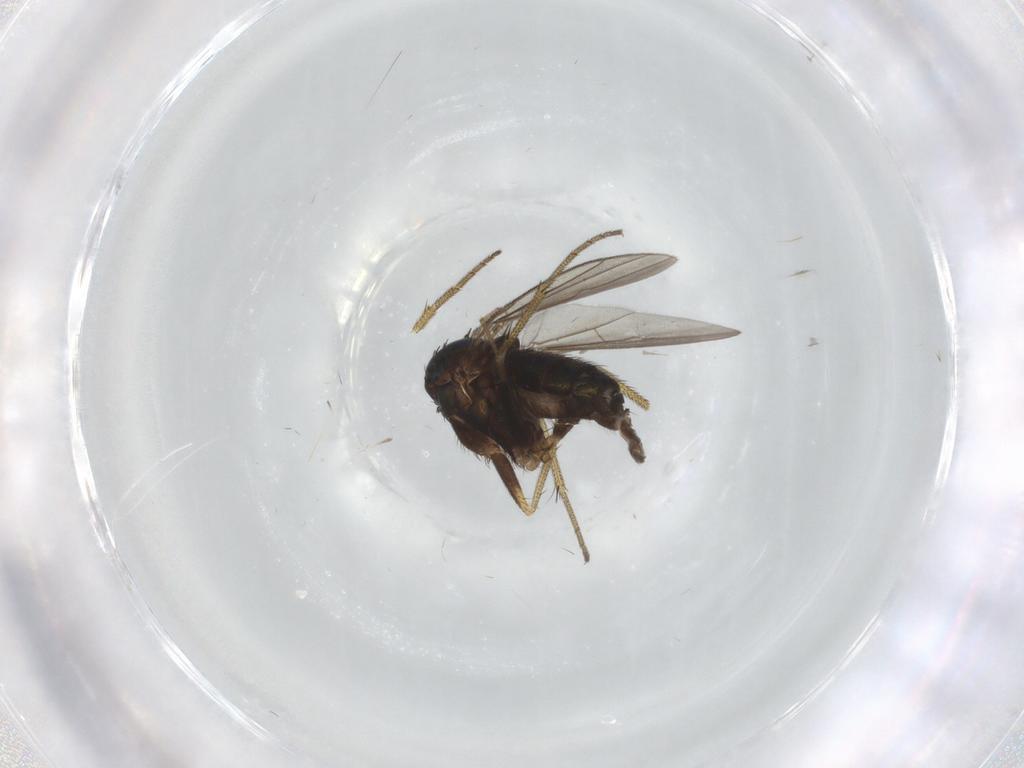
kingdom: Animalia
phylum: Arthropoda
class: Insecta
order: Diptera
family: Dolichopodidae
